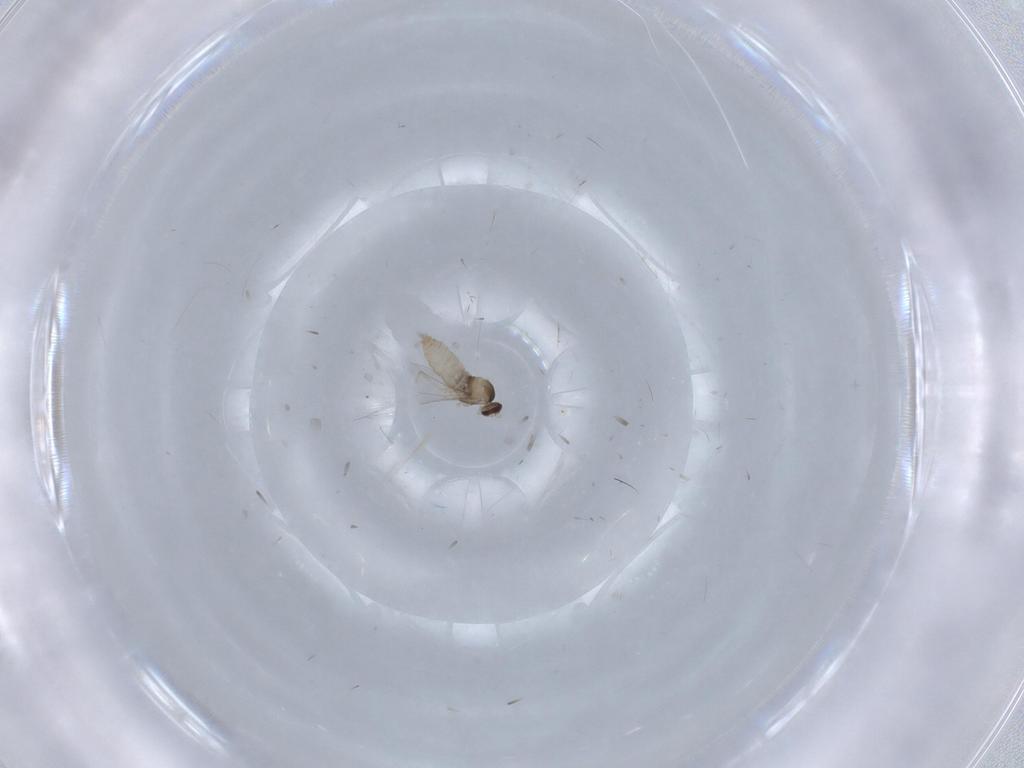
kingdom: Animalia
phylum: Arthropoda
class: Insecta
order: Diptera
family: Cecidomyiidae
